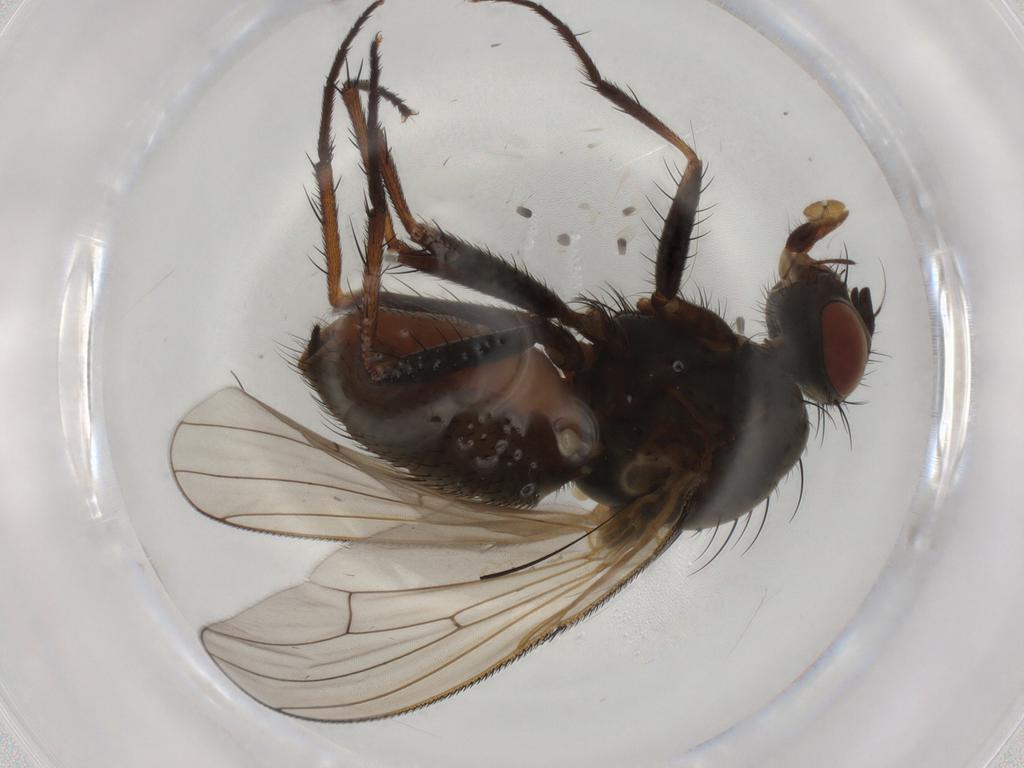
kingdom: Animalia
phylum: Arthropoda
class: Insecta
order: Diptera
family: Anthomyiidae
